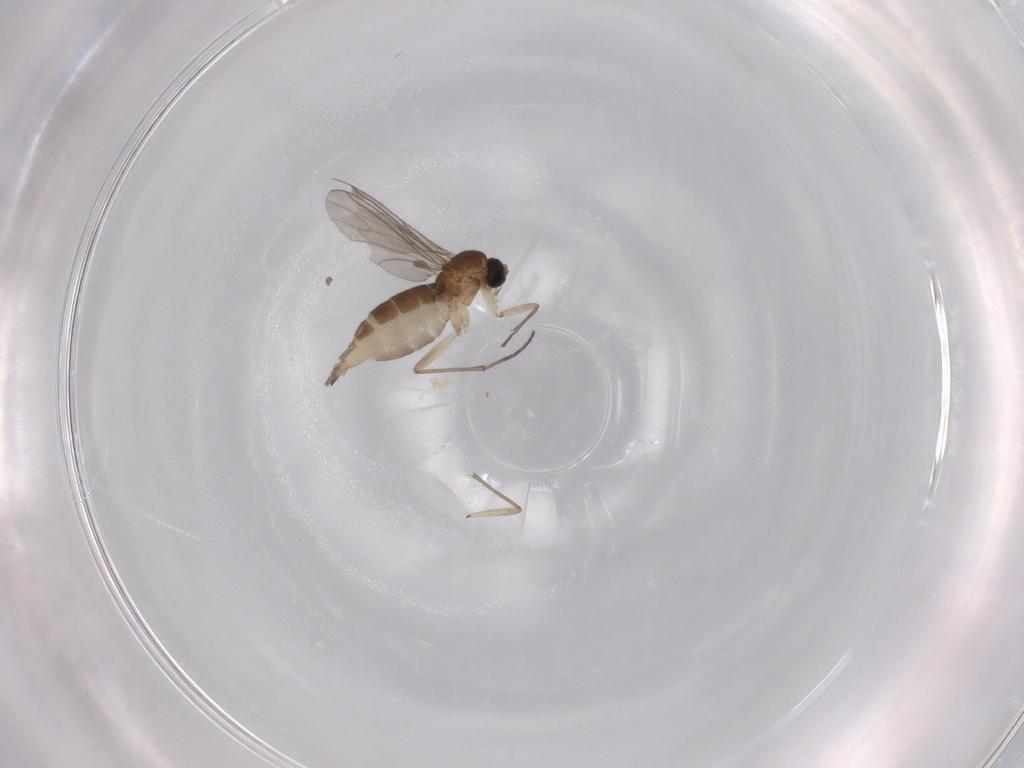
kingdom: Animalia
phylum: Arthropoda
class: Insecta
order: Diptera
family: Sciaridae
